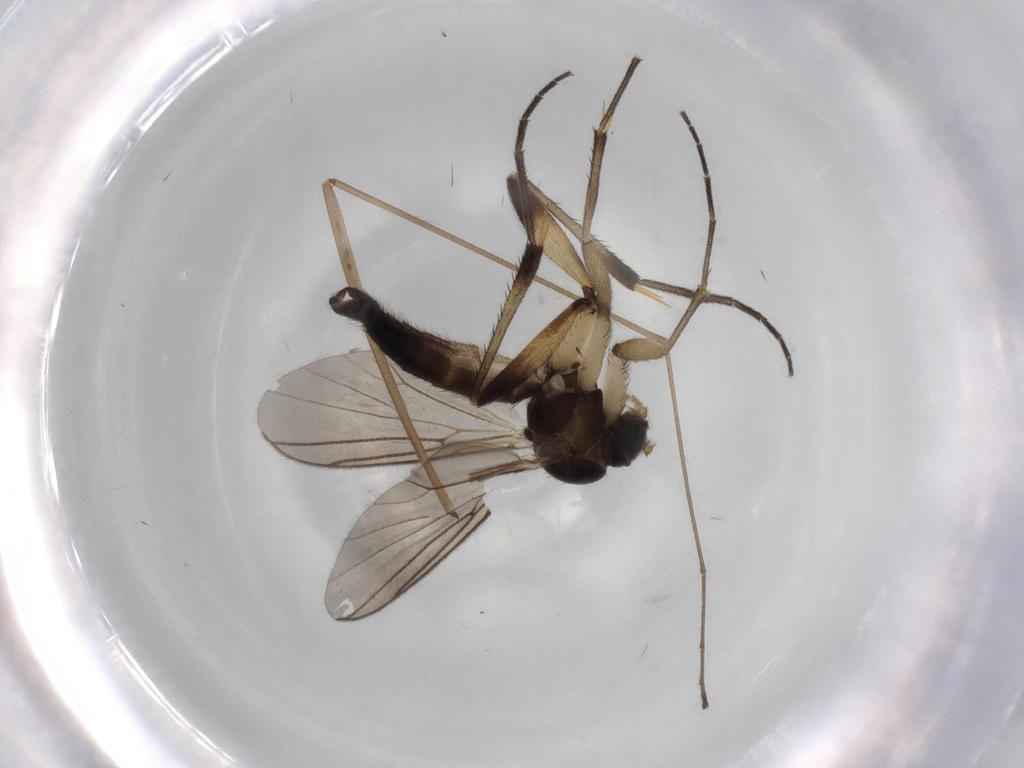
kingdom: Animalia
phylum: Arthropoda
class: Insecta
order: Diptera
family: Mycetophilidae
